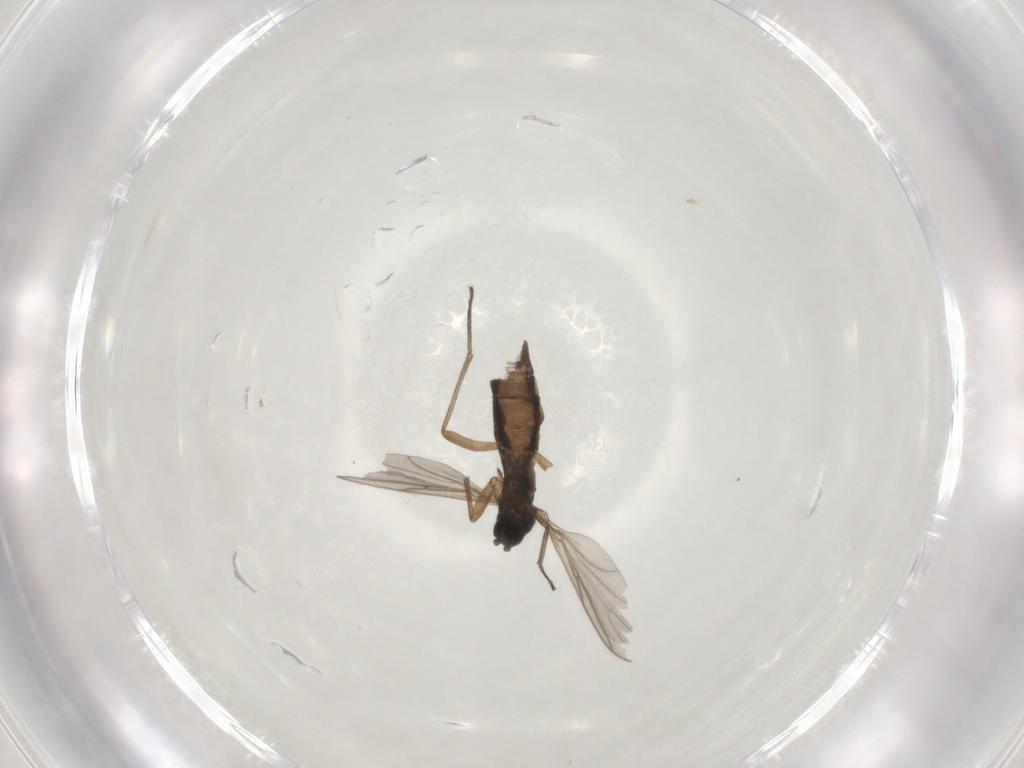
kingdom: Animalia
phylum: Arthropoda
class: Insecta
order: Diptera
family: Sciaridae
